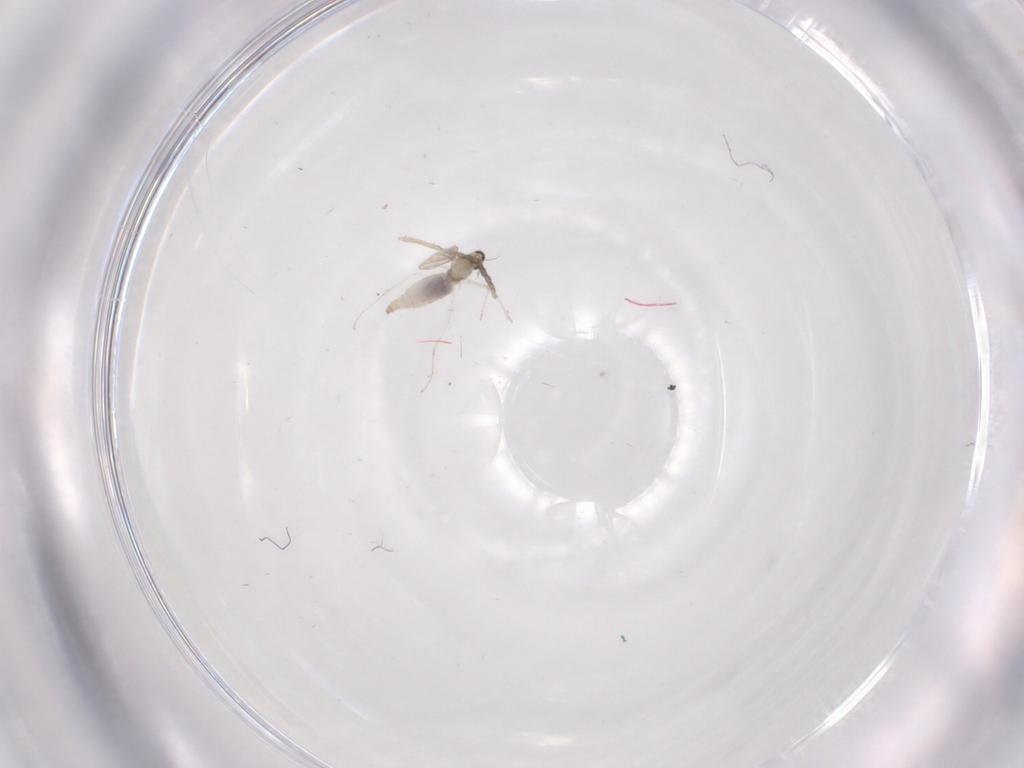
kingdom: Animalia
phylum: Arthropoda
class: Insecta
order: Diptera
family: Cecidomyiidae
